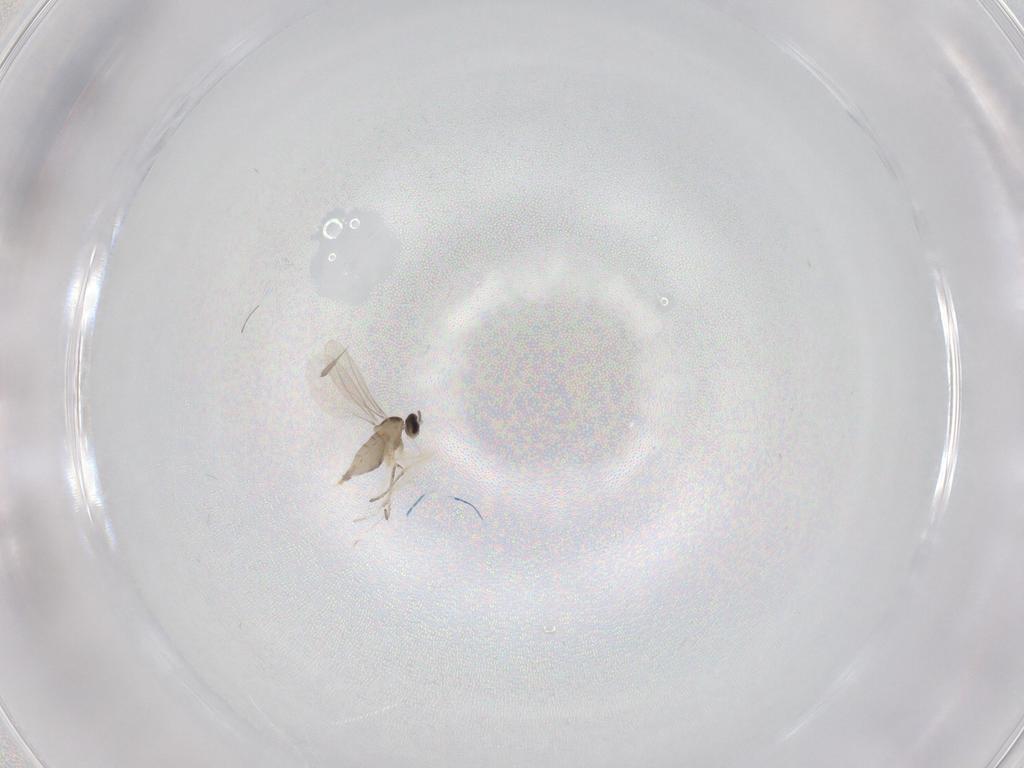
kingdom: Animalia
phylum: Arthropoda
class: Insecta
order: Diptera
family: Cecidomyiidae
